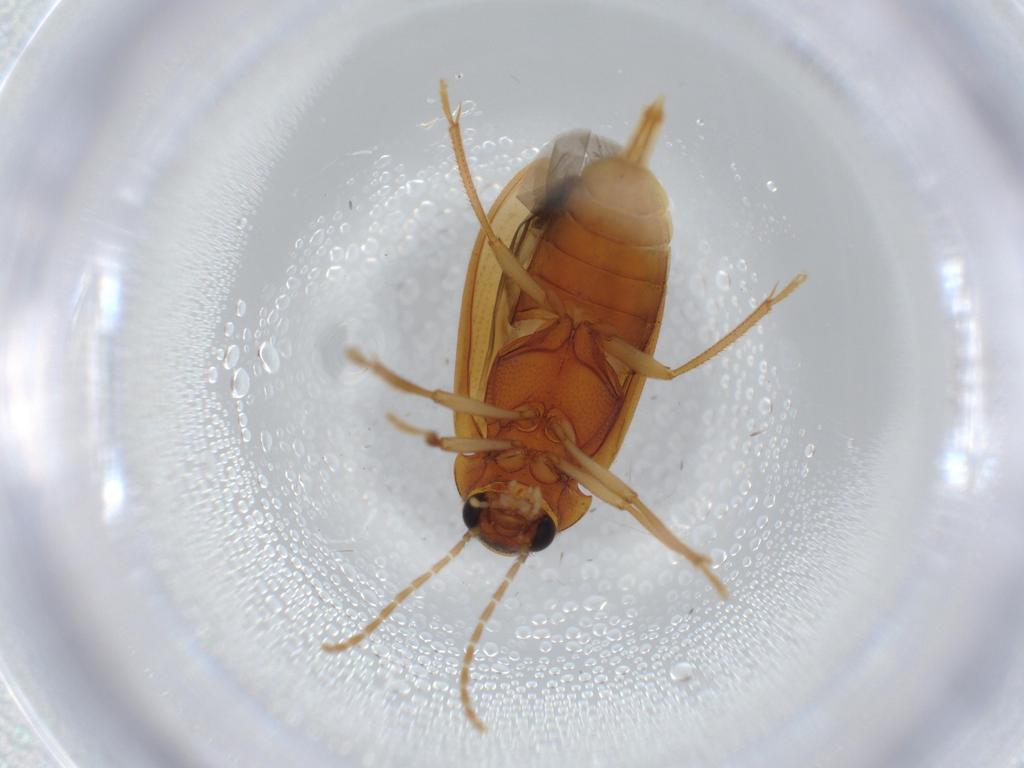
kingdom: Animalia
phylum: Arthropoda
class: Insecta
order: Coleoptera
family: Ptilodactylidae
